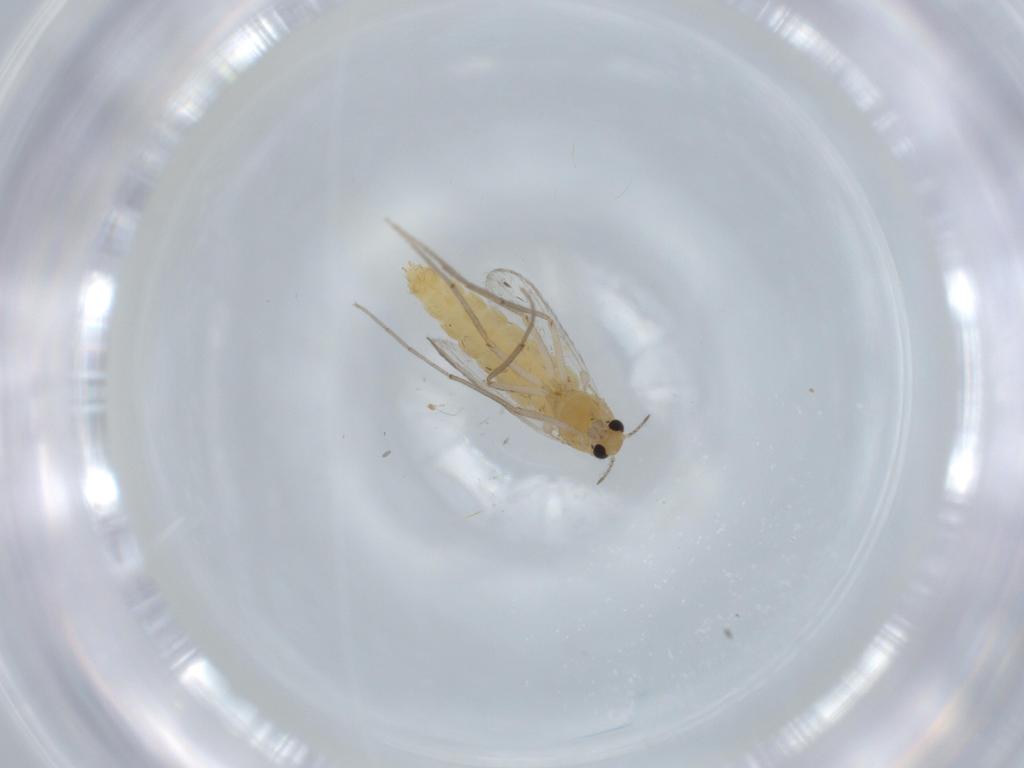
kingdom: Animalia
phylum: Arthropoda
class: Insecta
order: Diptera
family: Chironomidae
